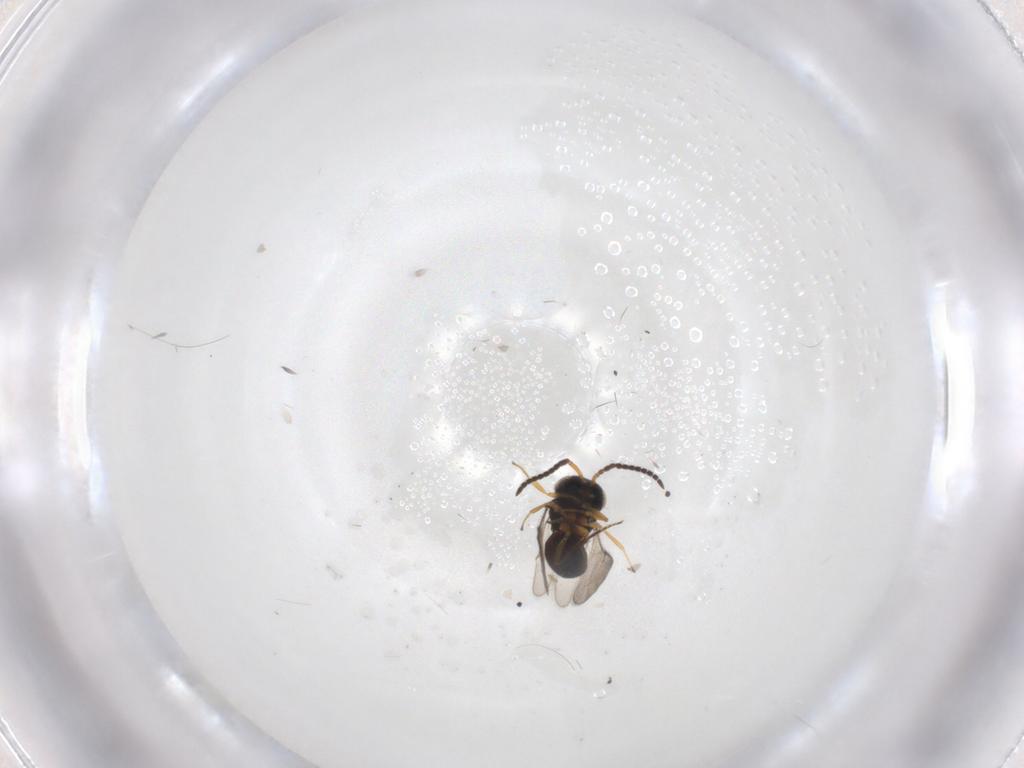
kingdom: Animalia
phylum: Arthropoda
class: Insecta
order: Hymenoptera
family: Scelionidae
